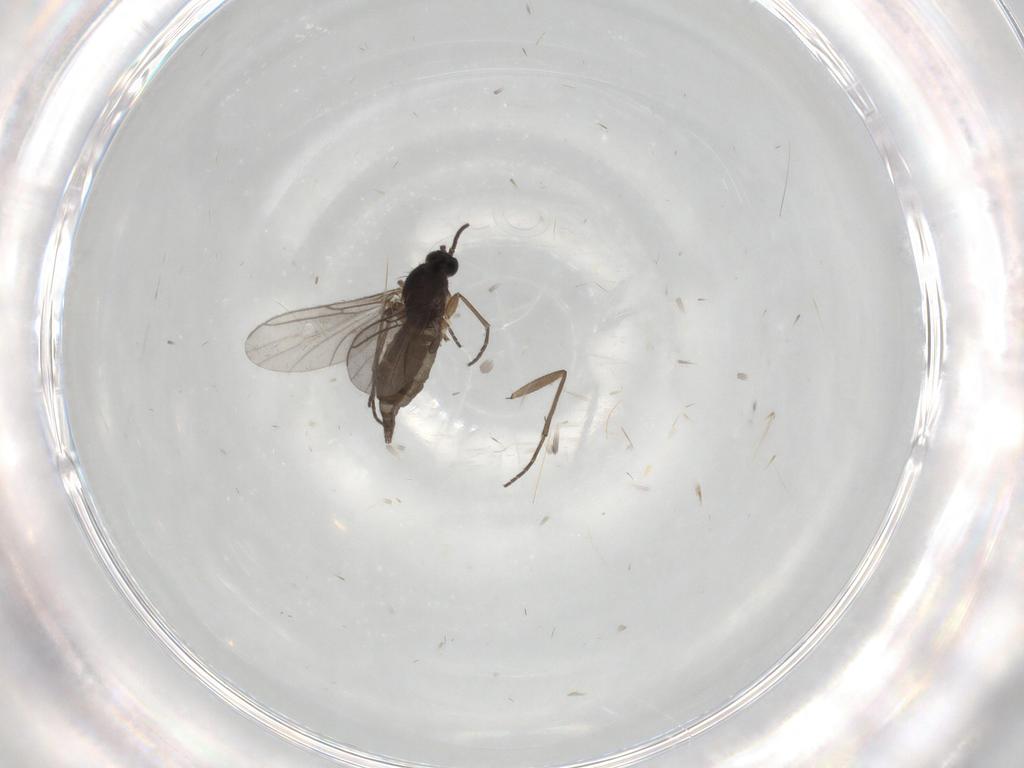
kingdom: Animalia
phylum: Arthropoda
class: Insecta
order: Diptera
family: Sciaridae
